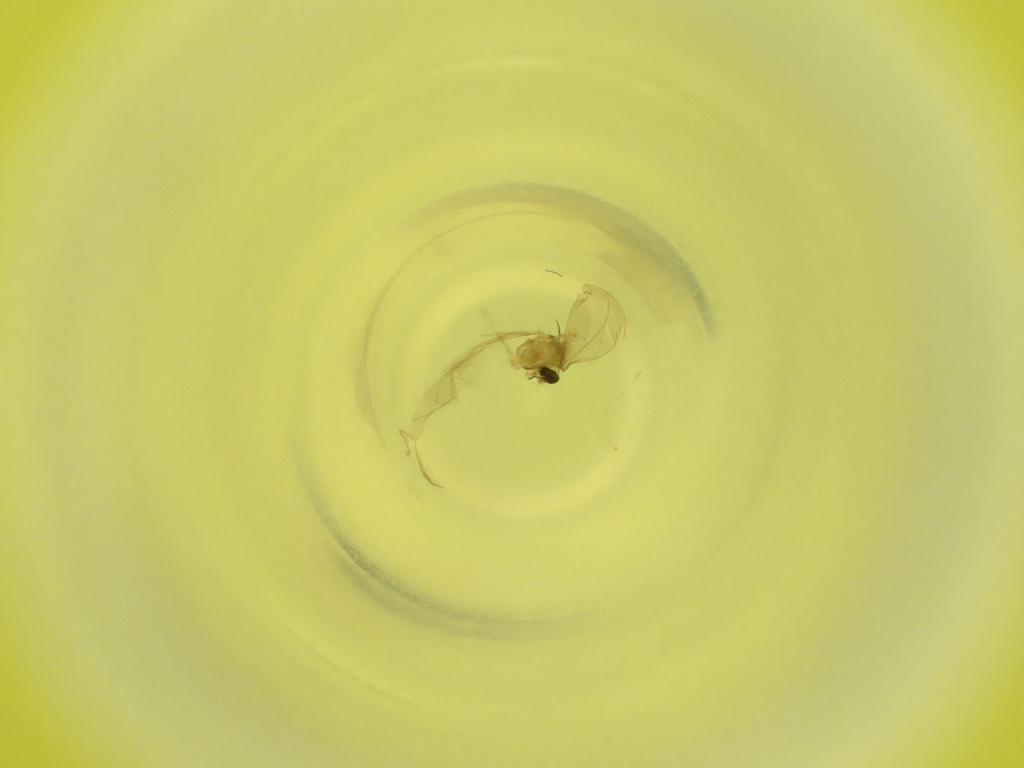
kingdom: Animalia
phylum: Arthropoda
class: Insecta
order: Diptera
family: Cecidomyiidae
